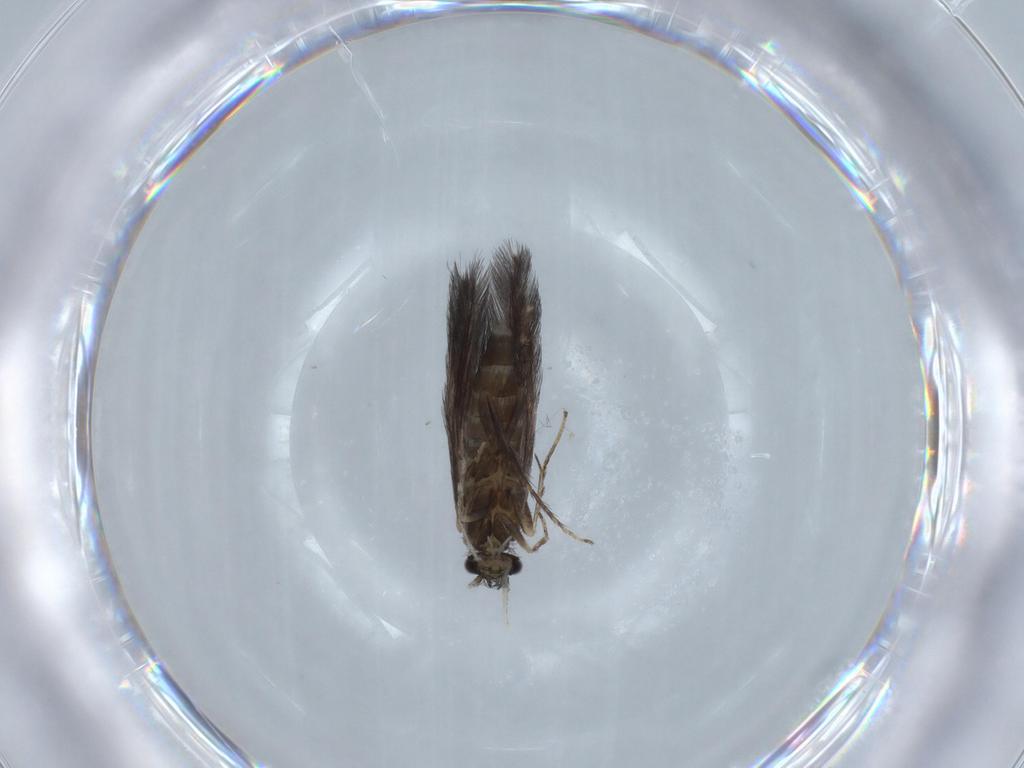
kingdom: Animalia
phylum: Arthropoda
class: Insecta
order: Trichoptera
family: Hydroptilidae
